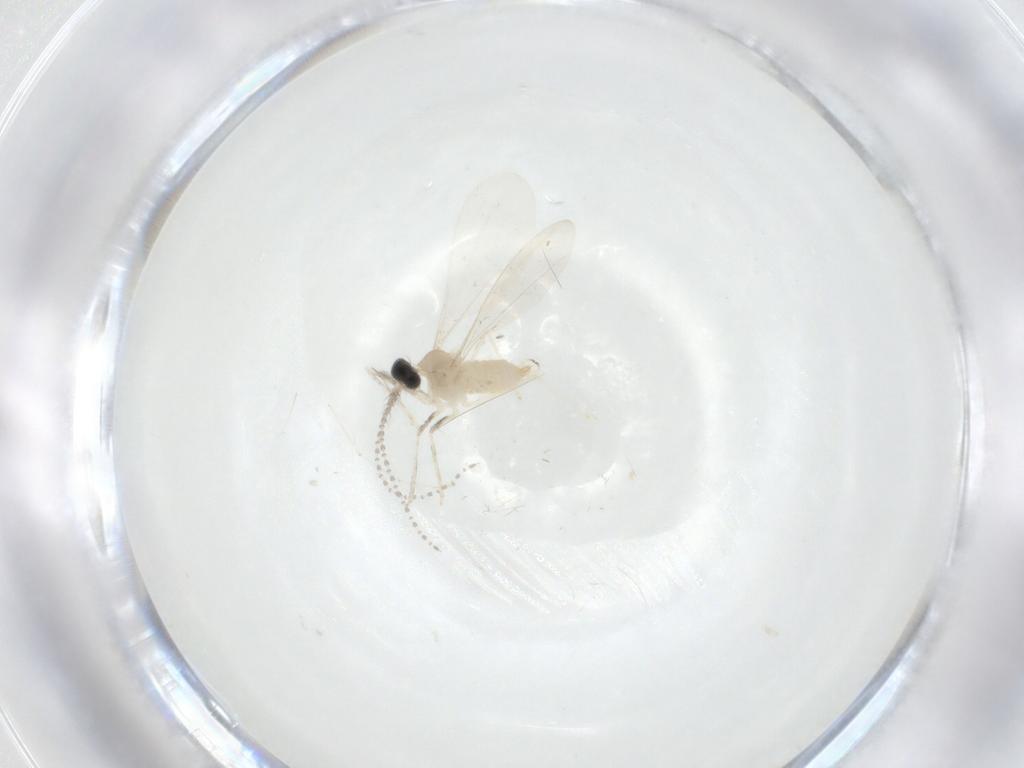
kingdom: Animalia
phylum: Arthropoda
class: Insecta
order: Diptera
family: Cecidomyiidae
